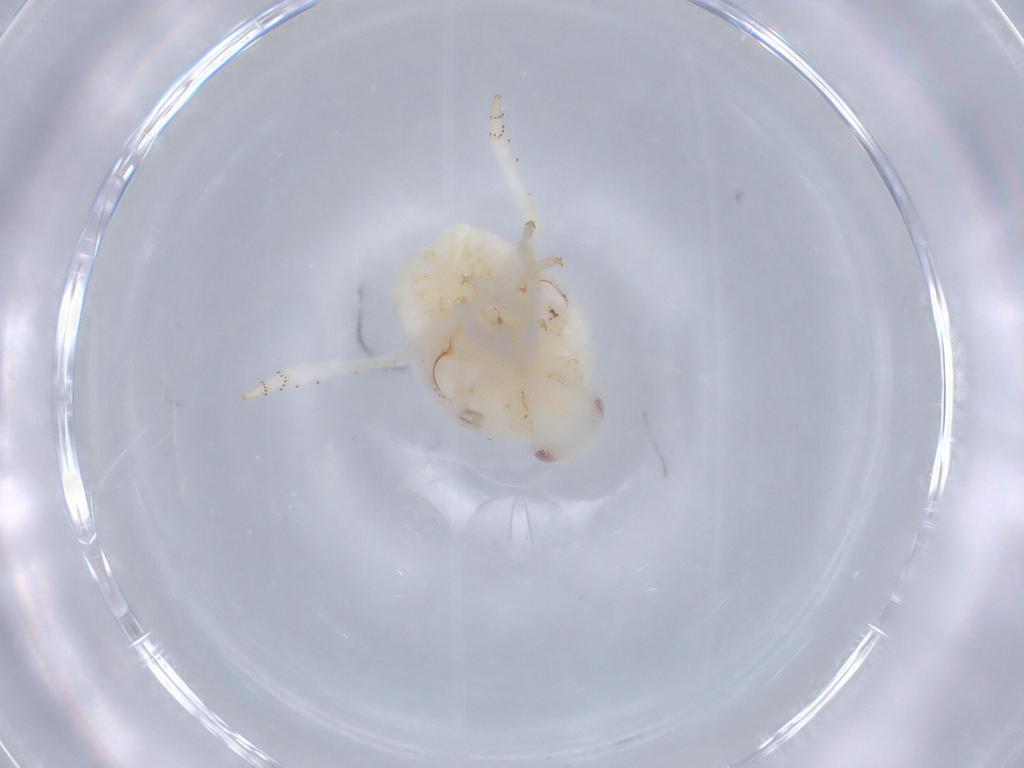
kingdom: Animalia
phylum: Arthropoda
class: Insecta
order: Hemiptera
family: Flatidae
